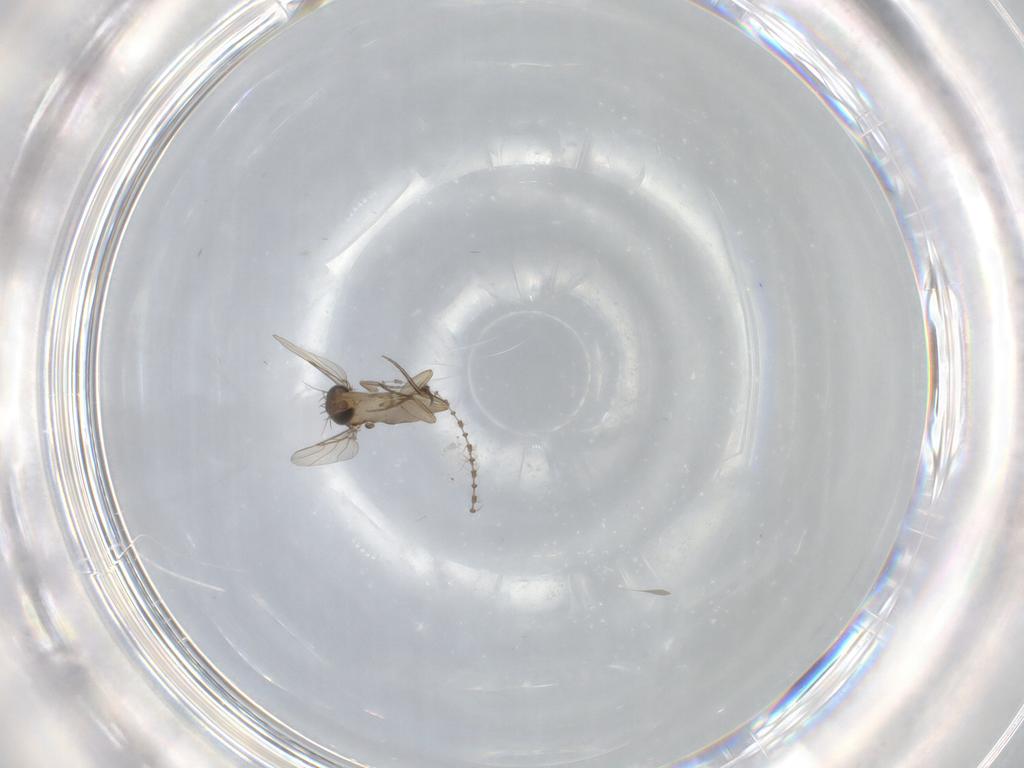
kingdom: Animalia
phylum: Arthropoda
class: Insecta
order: Diptera
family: Phoridae
